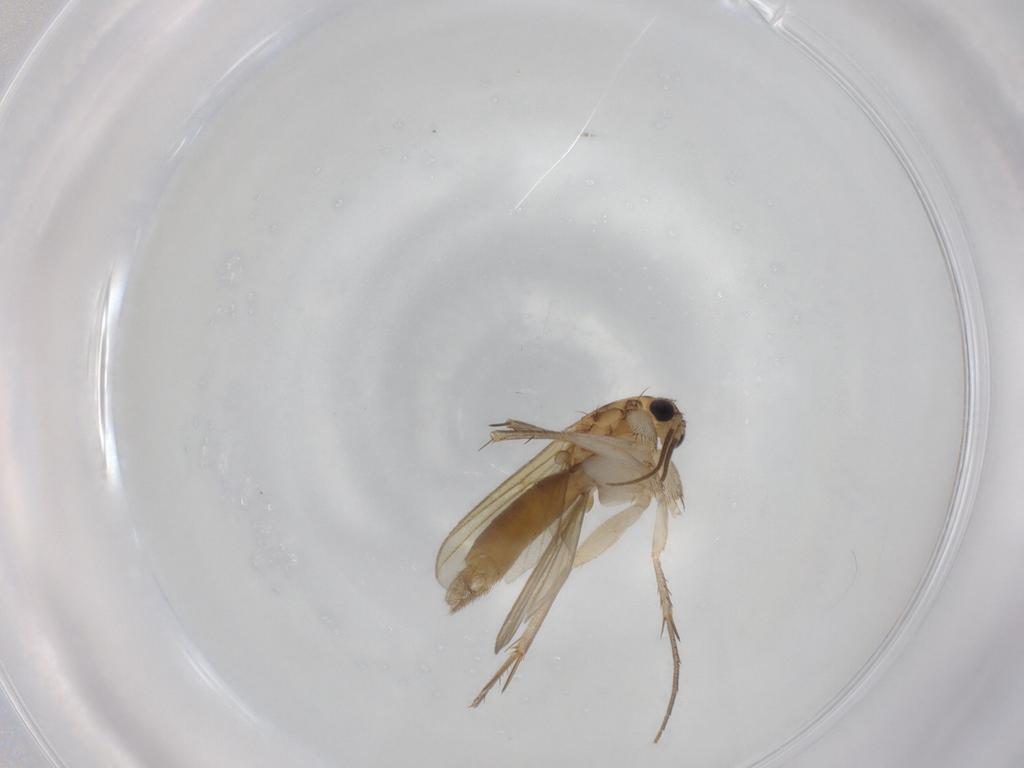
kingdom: Animalia
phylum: Arthropoda
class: Insecta
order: Diptera
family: Mycetophilidae
